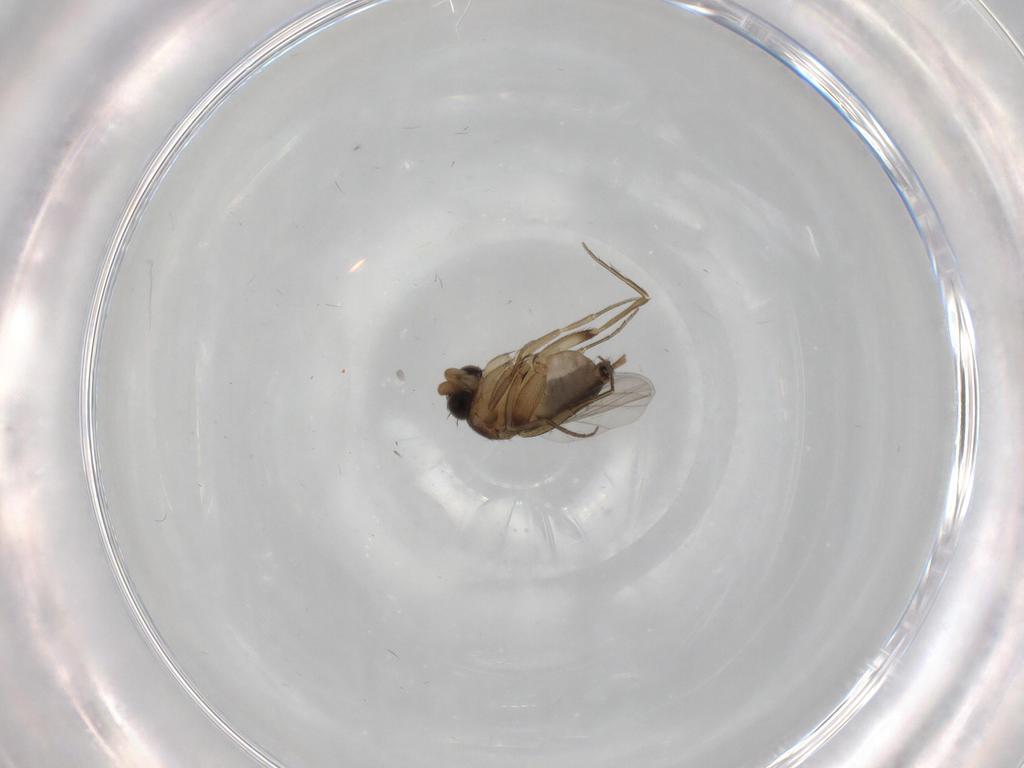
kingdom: Animalia
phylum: Arthropoda
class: Insecta
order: Diptera
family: Phoridae
